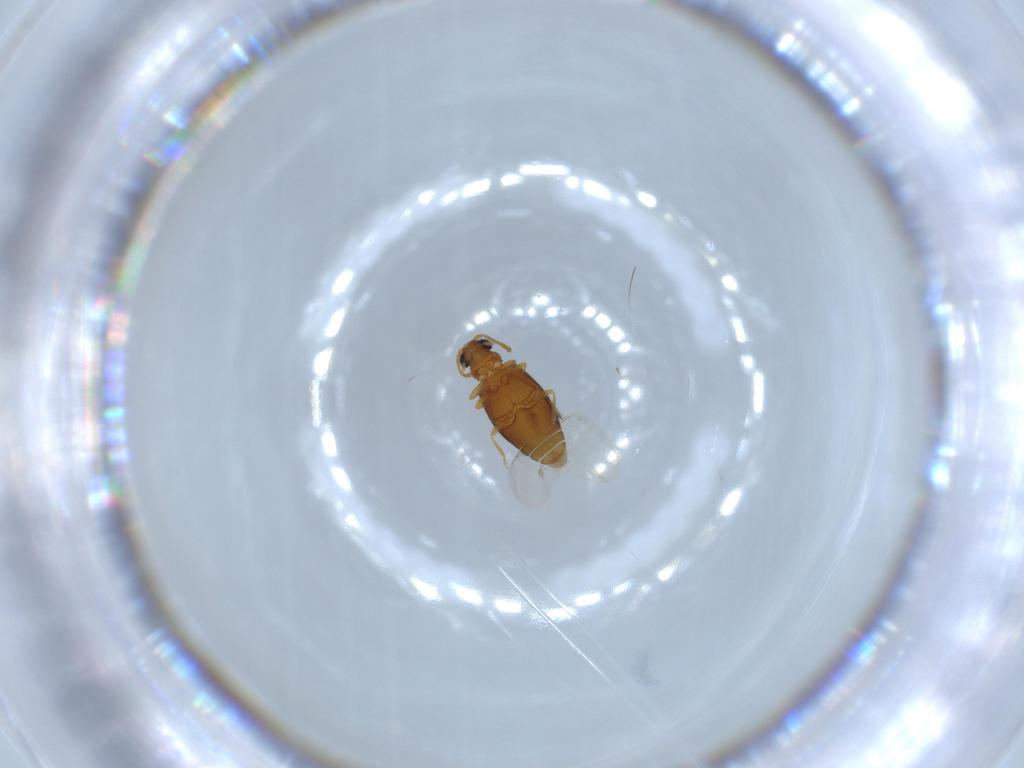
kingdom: Animalia
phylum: Arthropoda
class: Insecta
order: Coleoptera
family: Aderidae
